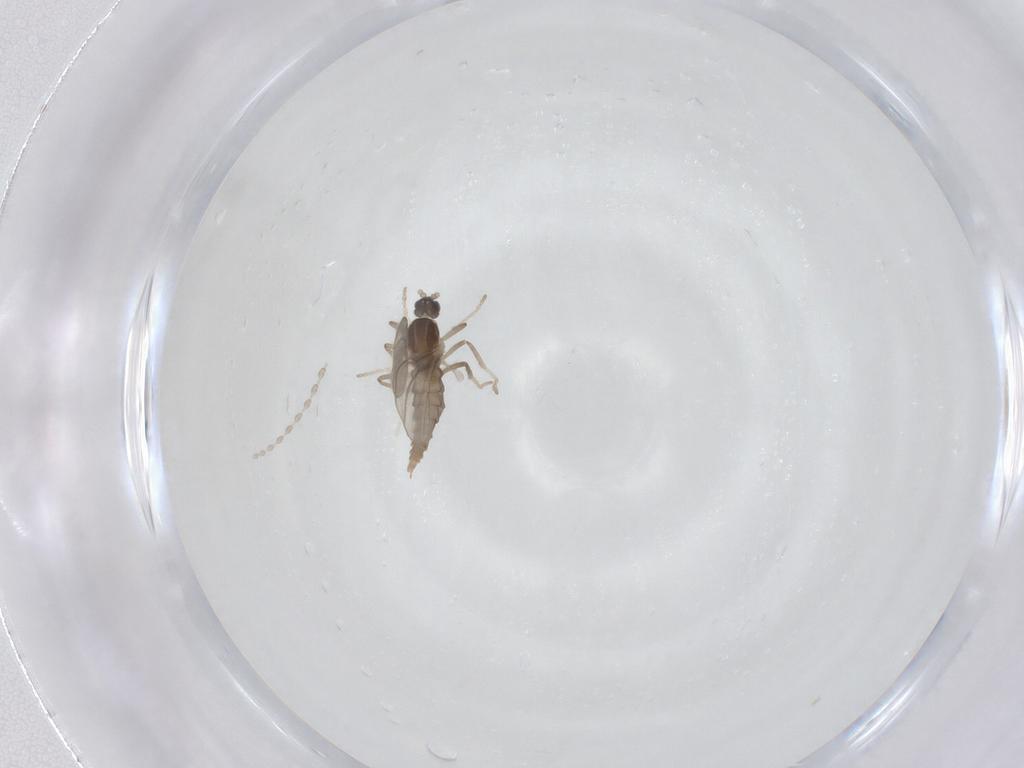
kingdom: Animalia
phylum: Arthropoda
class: Insecta
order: Diptera
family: Cecidomyiidae
